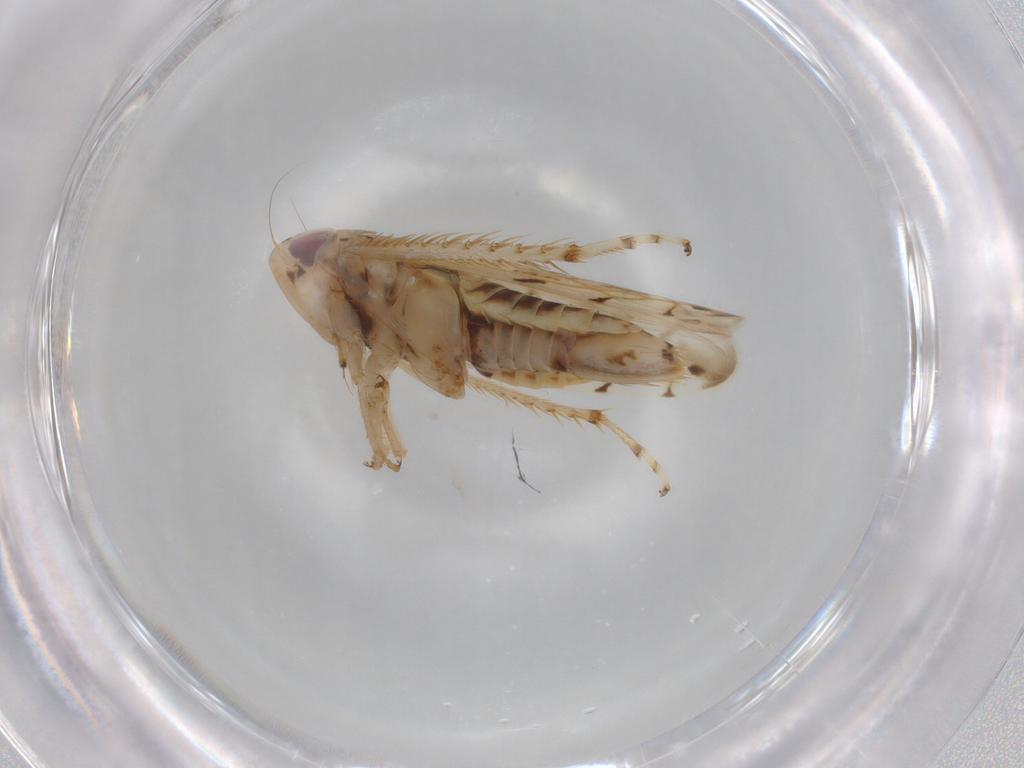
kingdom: Animalia
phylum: Arthropoda
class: Insecta
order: Hemiptera
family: Cicadellidae
